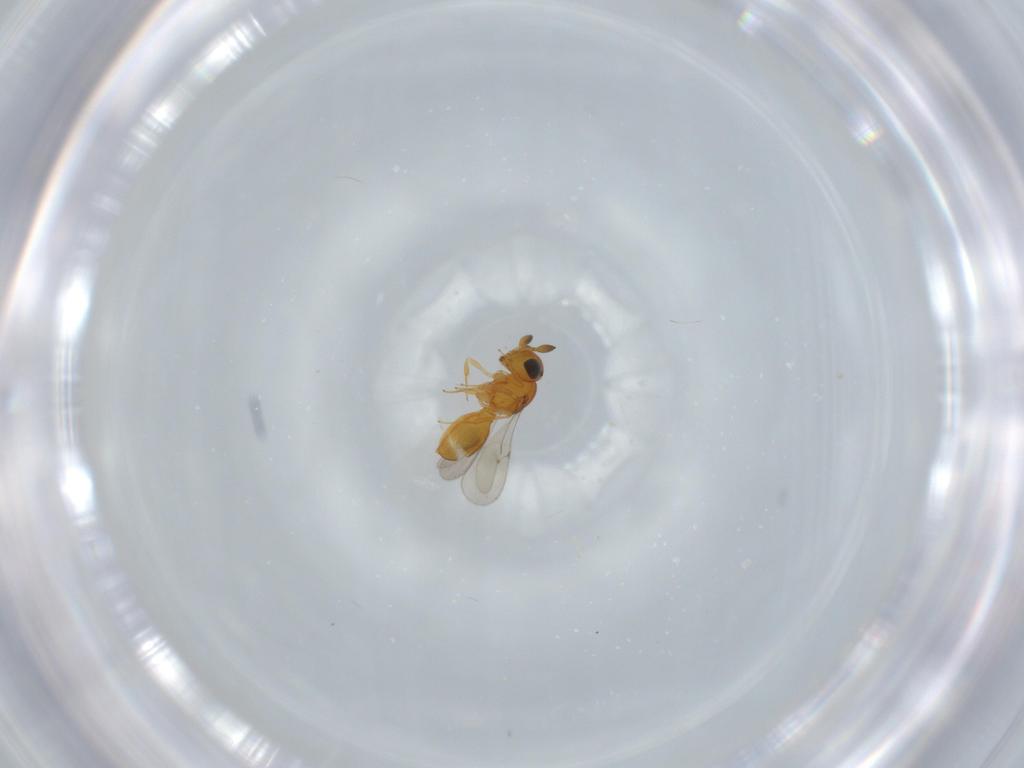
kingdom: Animalia
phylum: Arthropoda
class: Insecta
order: Hymenoptera
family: Scelionidae
